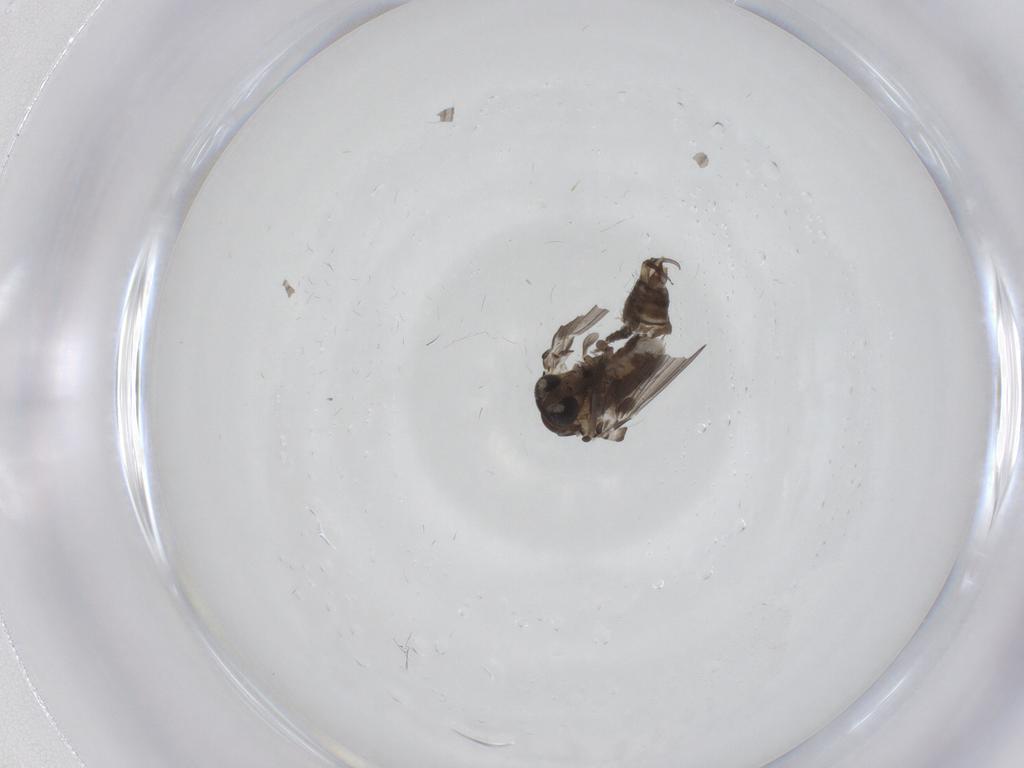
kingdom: Animalia
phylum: Arthropoda
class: Insecta
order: Diptera
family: Psychodidae
